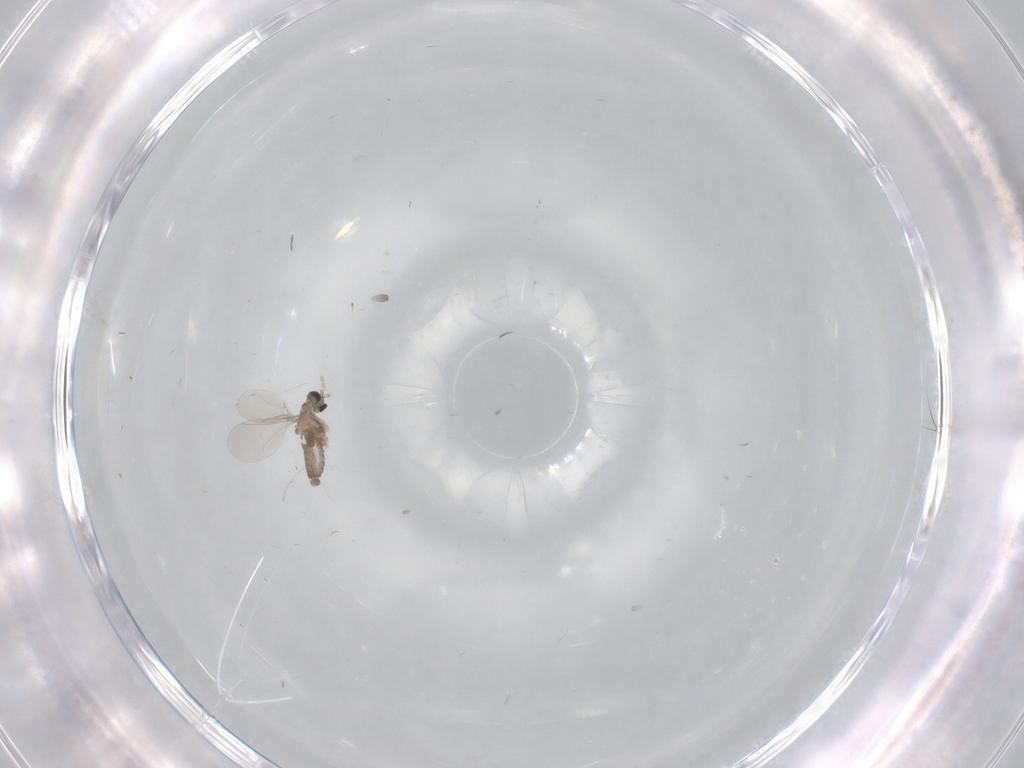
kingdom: Animalia
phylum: Arthropoda
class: Insecta
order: Diptera
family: Cecidomyiidae
